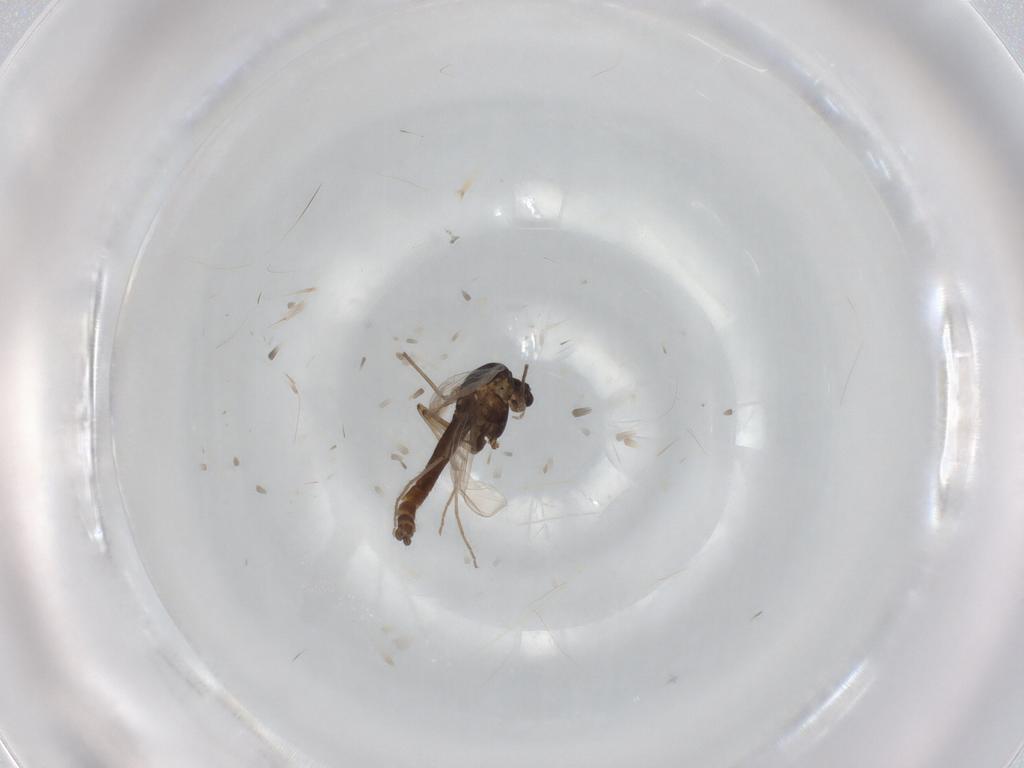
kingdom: Animalia
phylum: Arthropoda
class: Insecta
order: Diptera
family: Chironomidae
